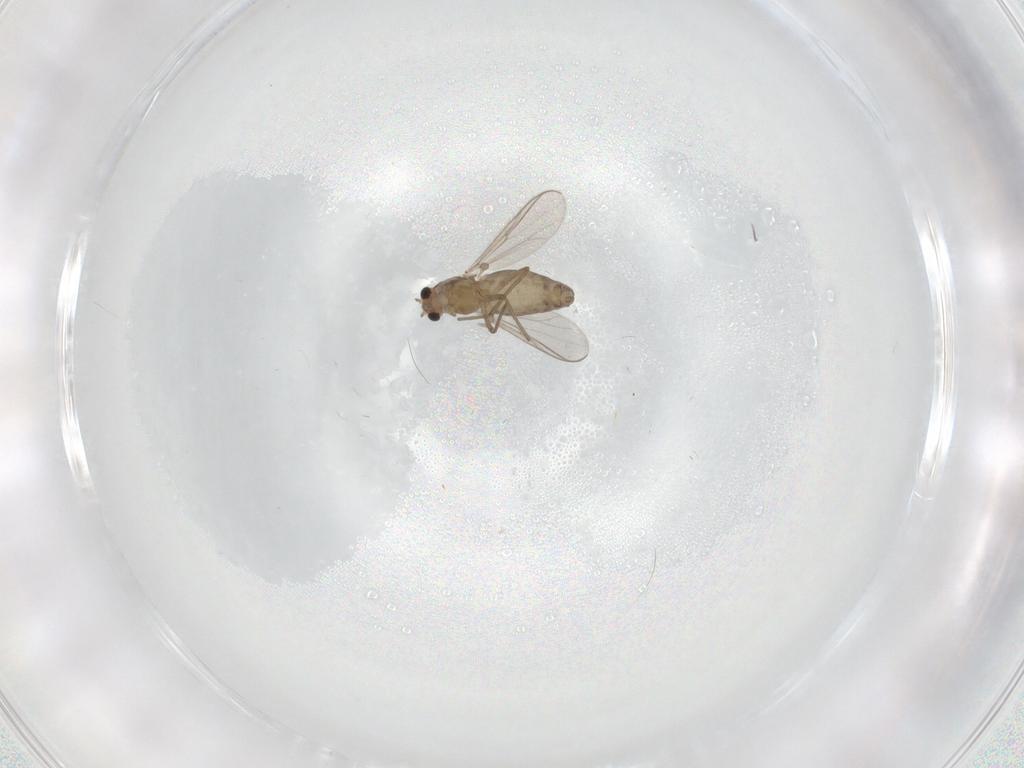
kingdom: Animalia
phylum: Arthropoda
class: Insecta
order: Diptera
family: Chironomidae
